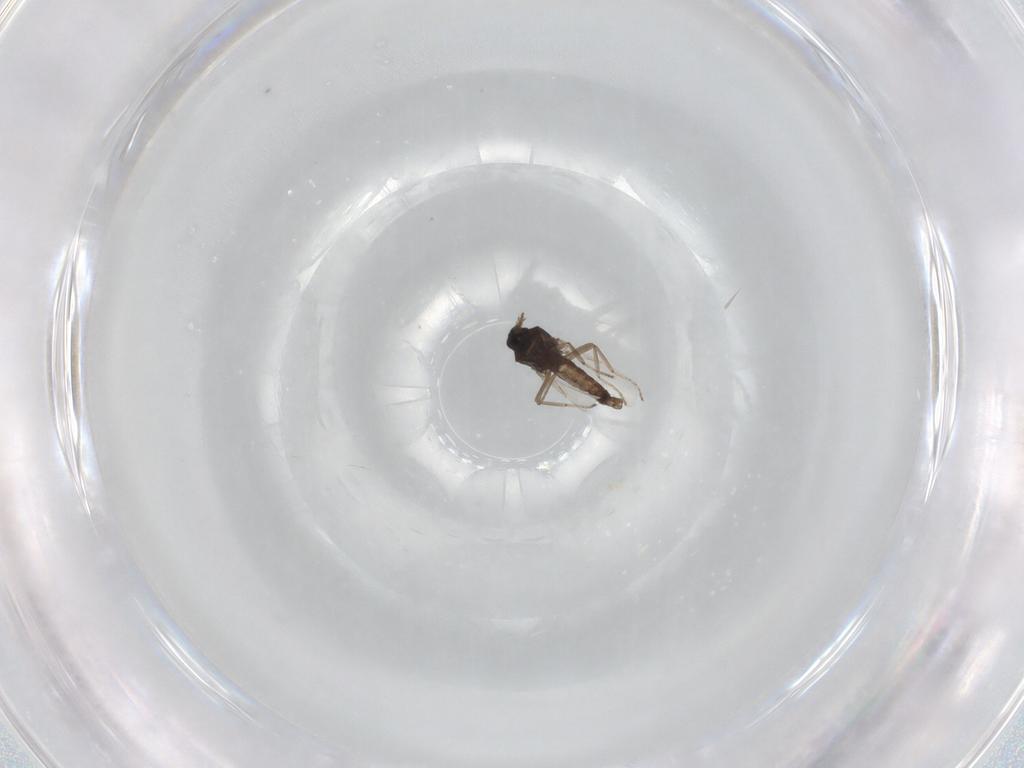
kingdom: Animalia
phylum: Arthropoda
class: Insecta
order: Diptera
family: Ceratopogonidae
